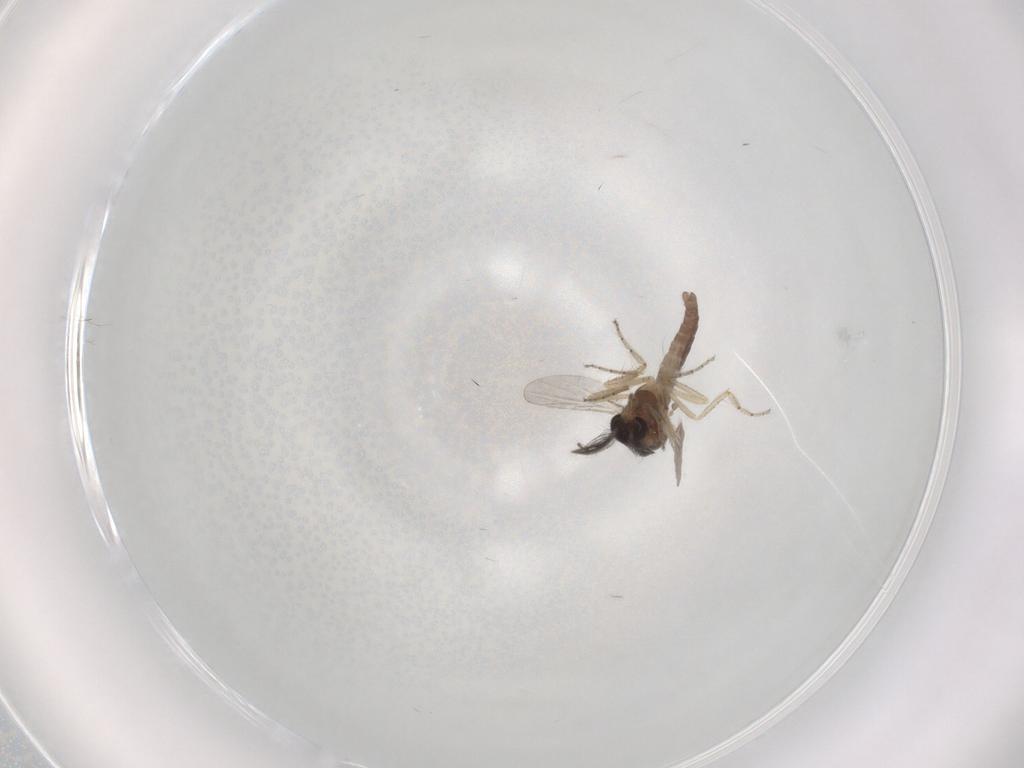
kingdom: Animalia
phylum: Arthropoda
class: Insecta
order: Diptera
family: Ceratopogonidae
